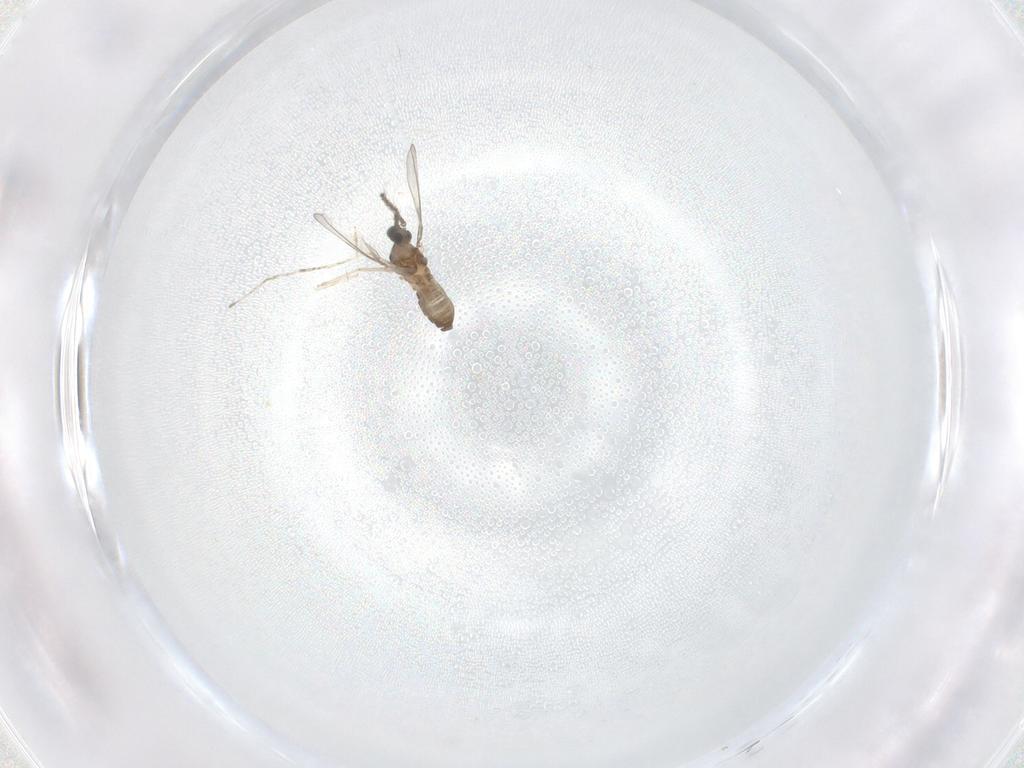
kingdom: Animalia
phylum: Arthropoda
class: Insecta
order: Diptera
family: Cecidomyiidae
